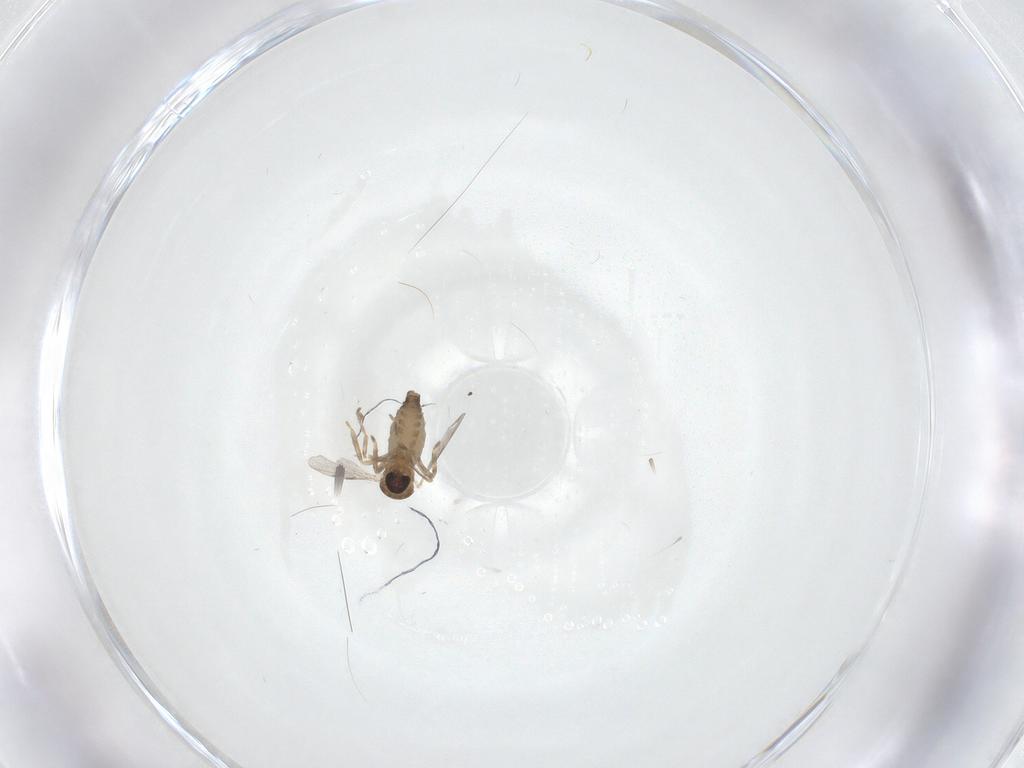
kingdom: Animalia
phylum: Arthropoda
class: Insecta
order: Diptera
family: Ceratopogonidae
